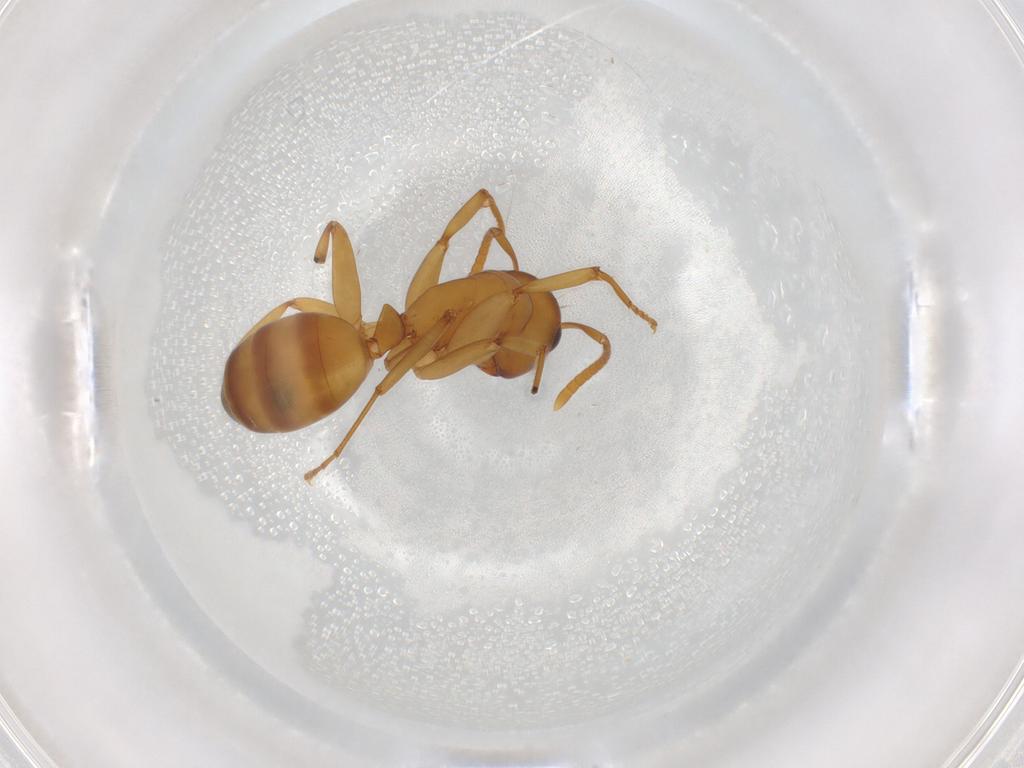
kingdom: Animalia
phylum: Arthropoda
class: Insecta
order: Hymenoptera
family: Formicidae
